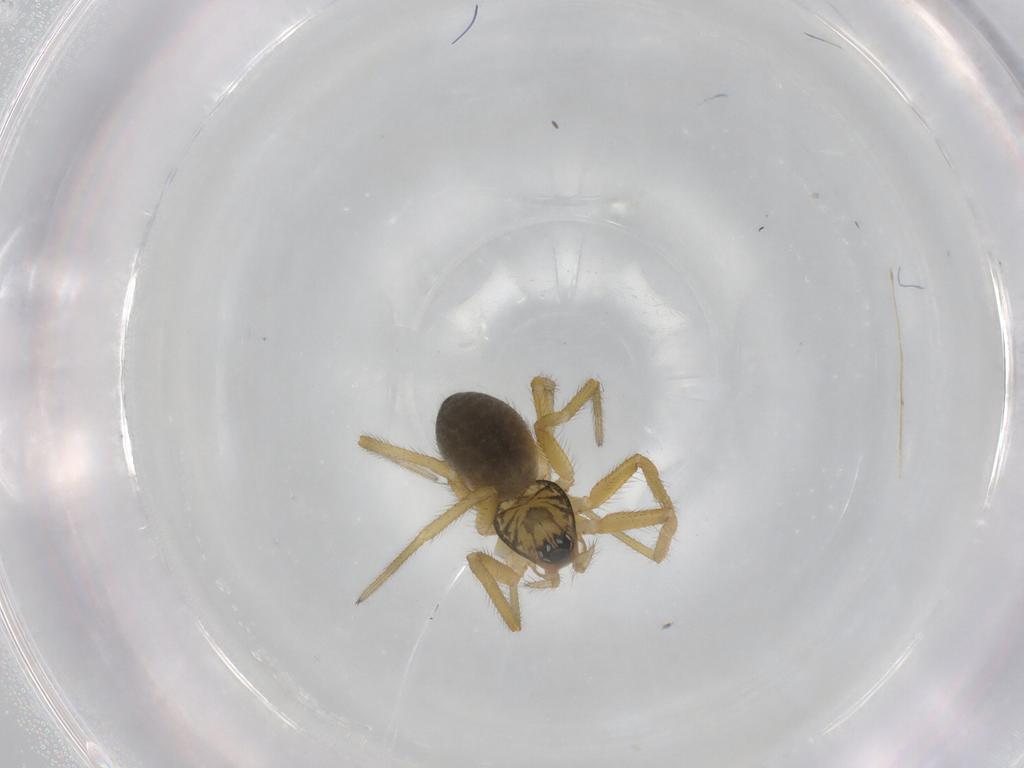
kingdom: Animalia
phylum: Arthropoda
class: Arachnida
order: Araneae
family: Linyphiidae
